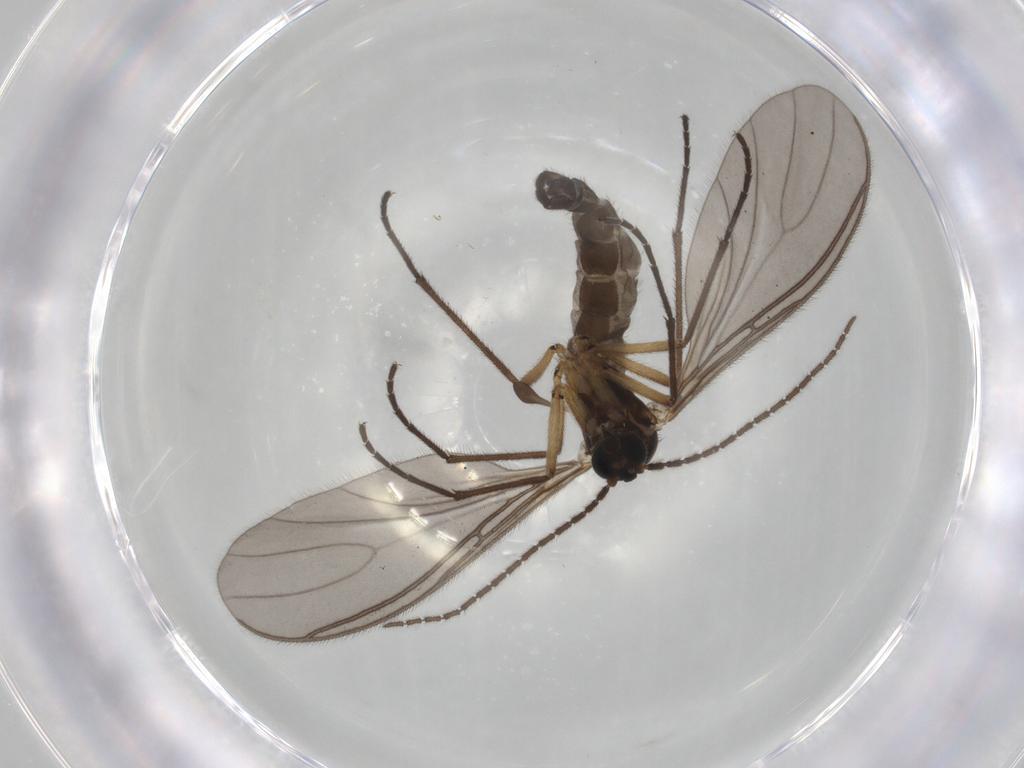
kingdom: Animalia
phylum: Arthropoda
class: Insecta
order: Diptera
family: Sciaridae
